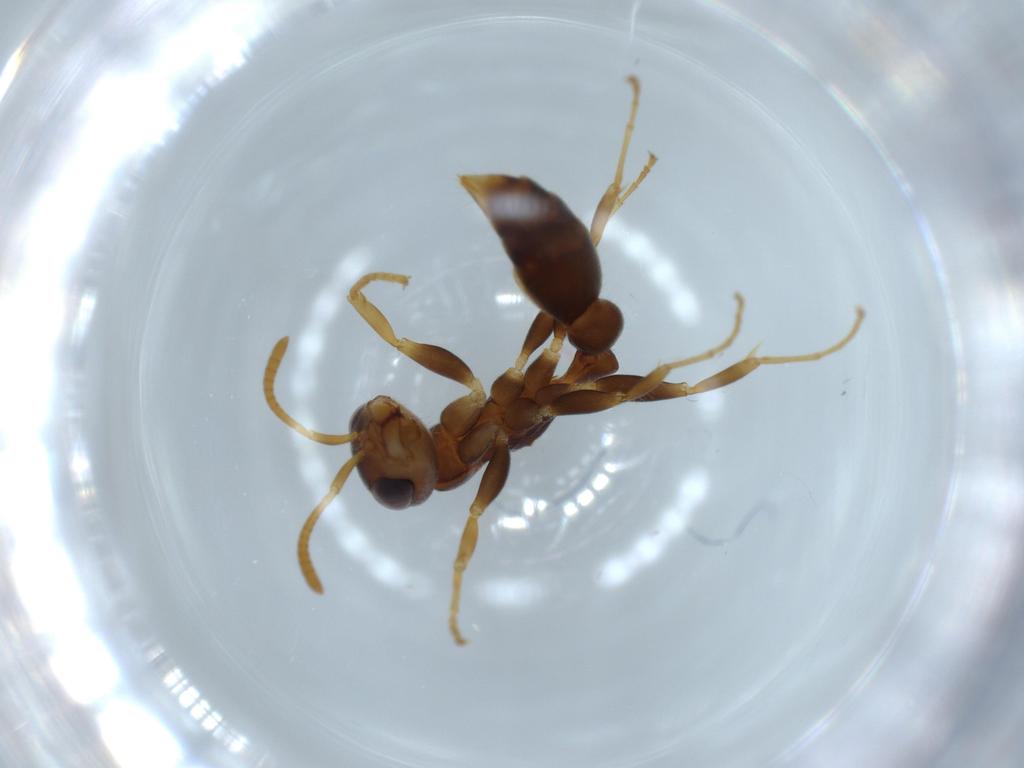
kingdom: Animalia
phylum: Arthropoda
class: Insecta
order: Hymenoptera
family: Formicidae
